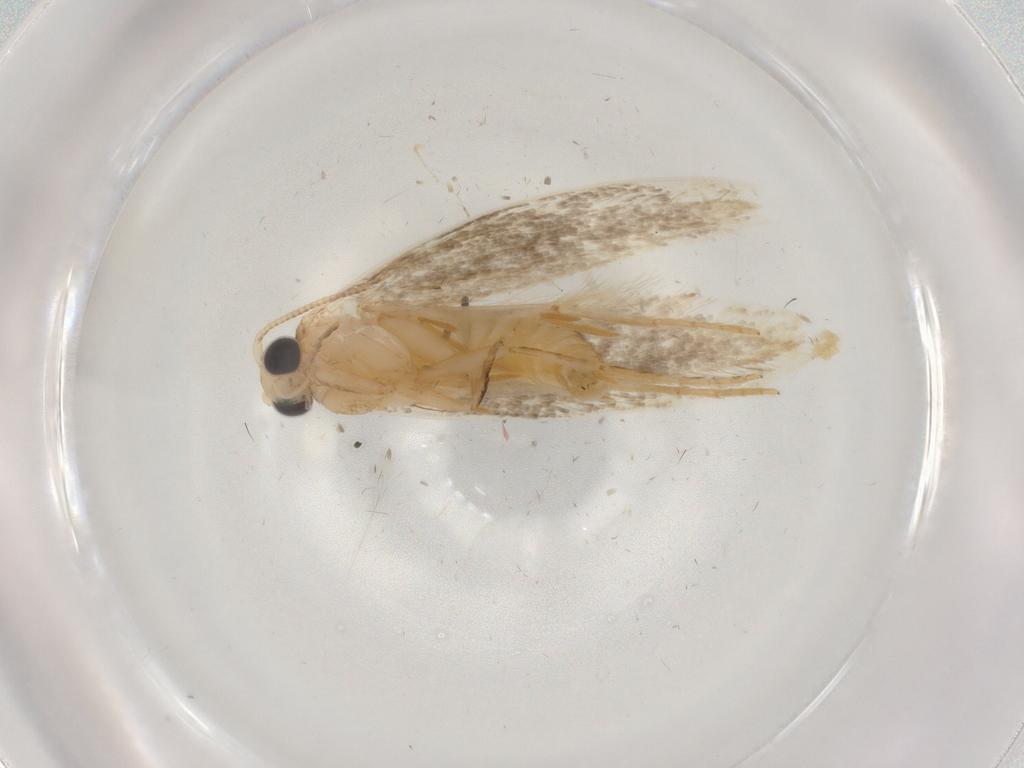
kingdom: Animalia
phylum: Arthropoda
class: Insecta
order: Lepidoptera
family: Tineidae
